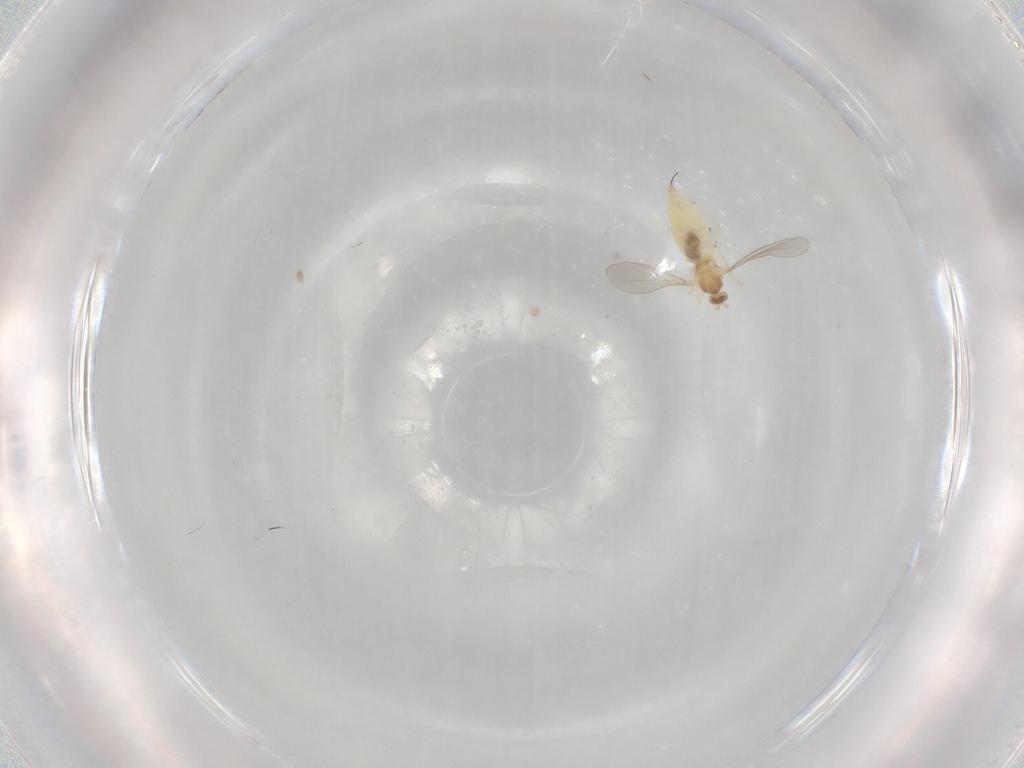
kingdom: Animalia
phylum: Arthropoda
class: Insecta
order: Diptera
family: Cecidomyiidae
